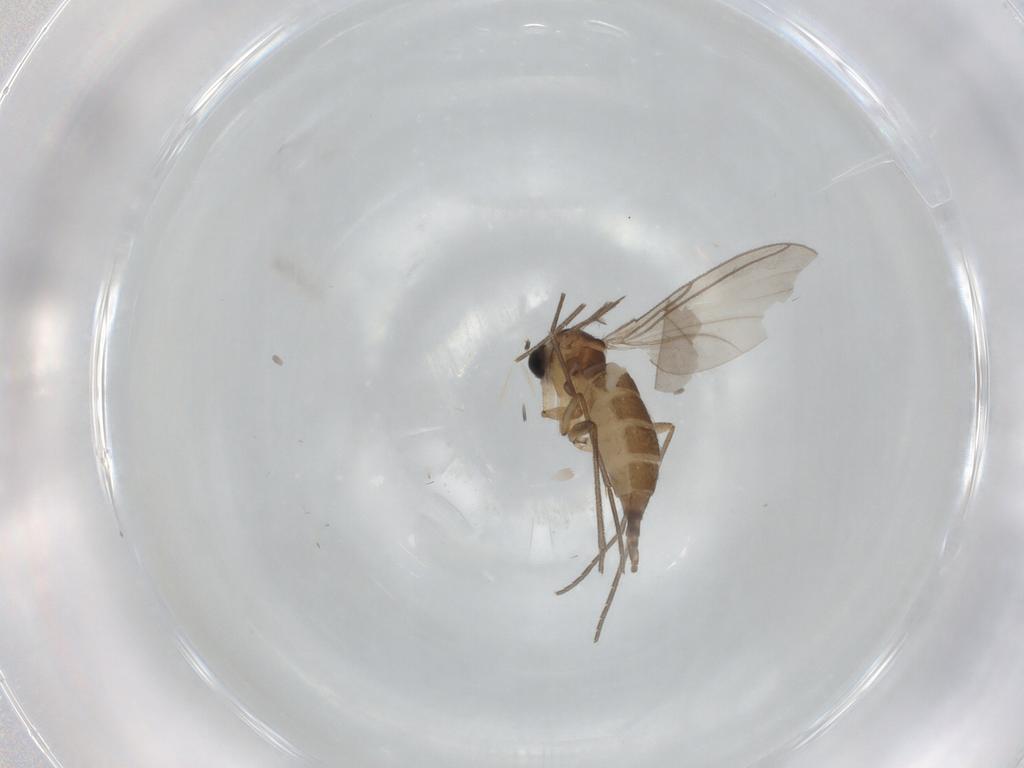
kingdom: Animalia
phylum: Arthropoda
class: Insecta
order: Diptera
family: Sciaridae
